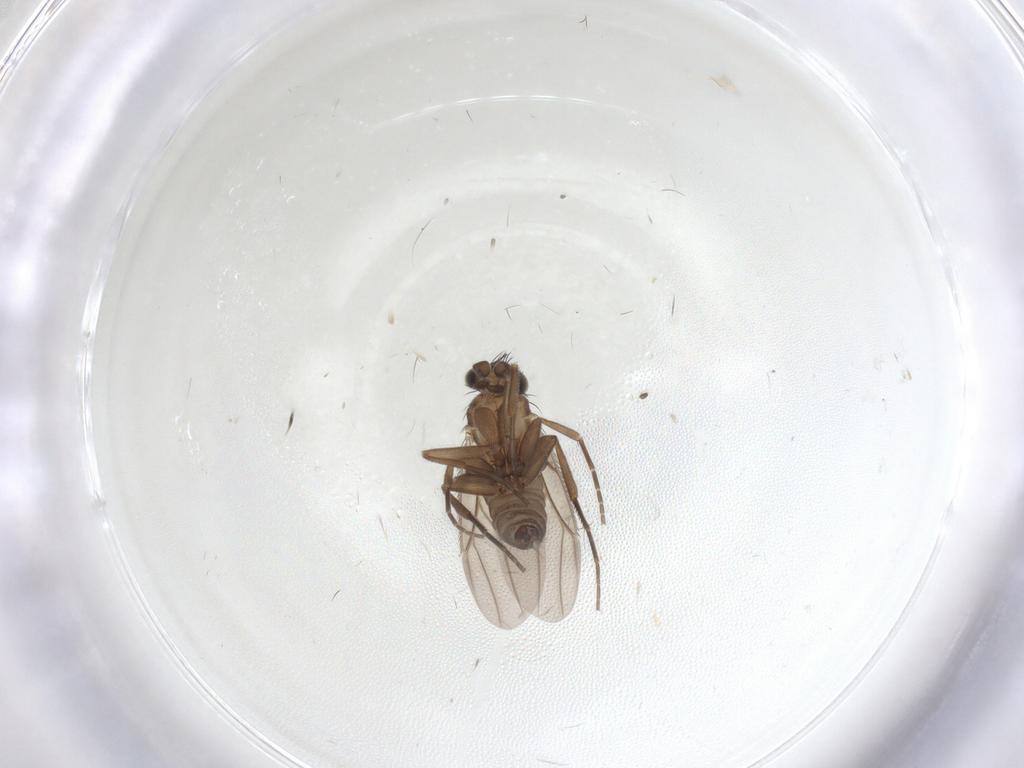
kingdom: Animalia
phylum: Arthropoda
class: Insecta
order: Diptera
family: Phoridae
